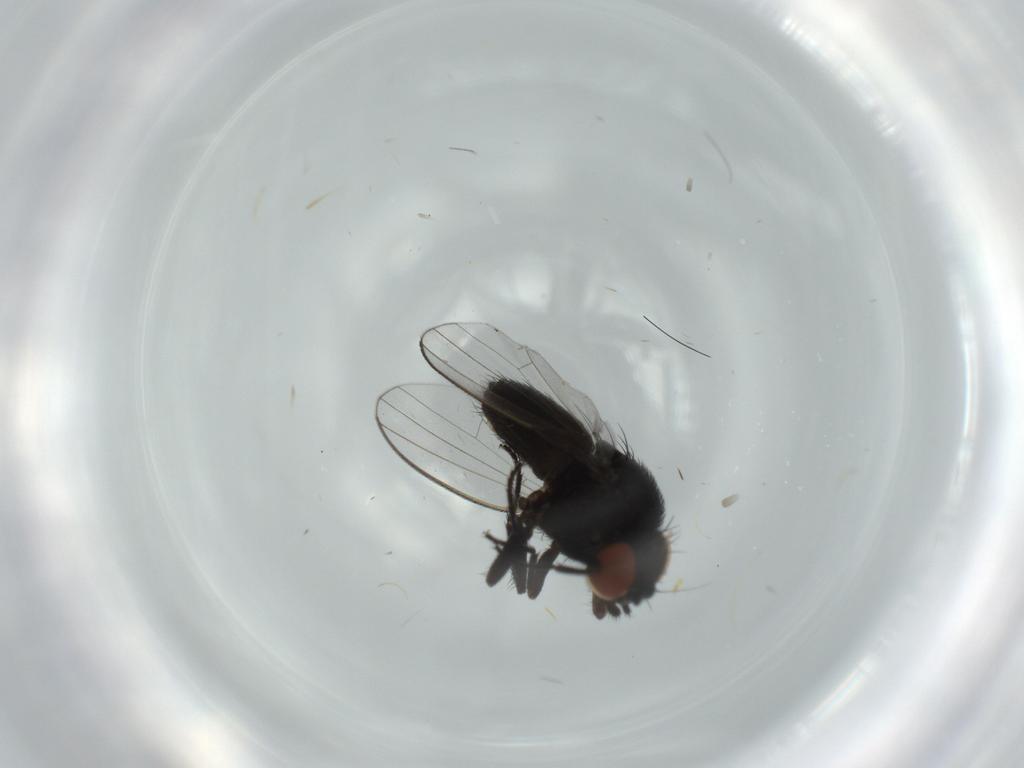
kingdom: Animalia
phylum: Arthropoda
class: Insecta
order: Diptera
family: Milichiidae
